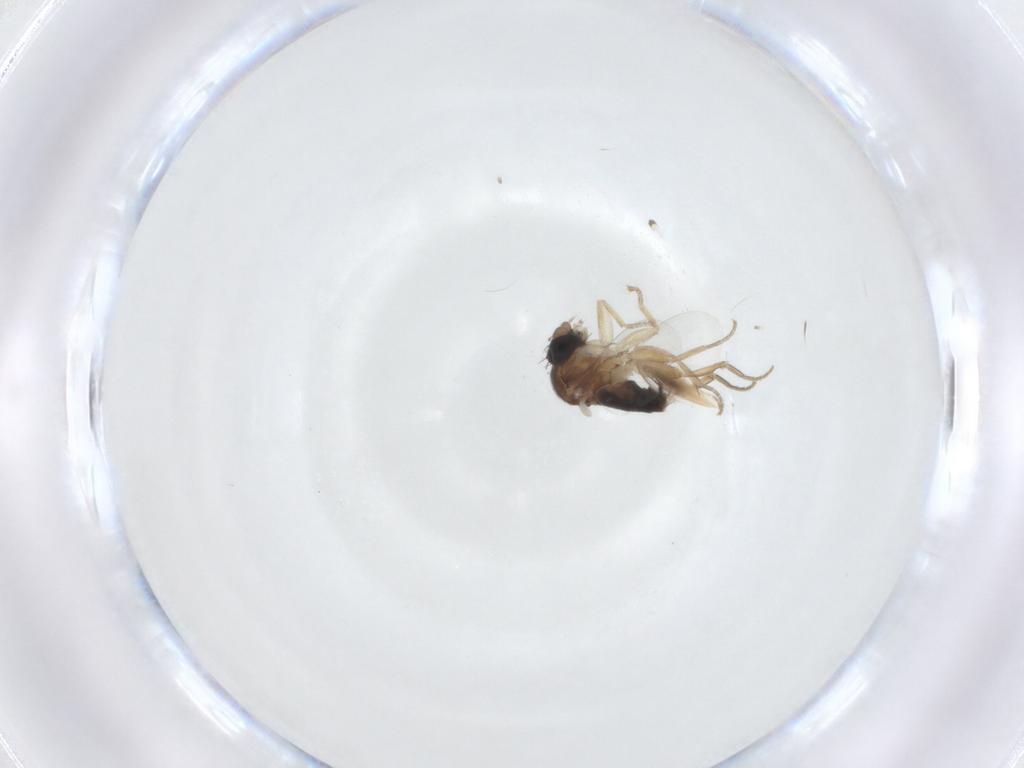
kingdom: Animalia
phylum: Arthropoda
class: Insecta
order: Diptera
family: Phoridae
